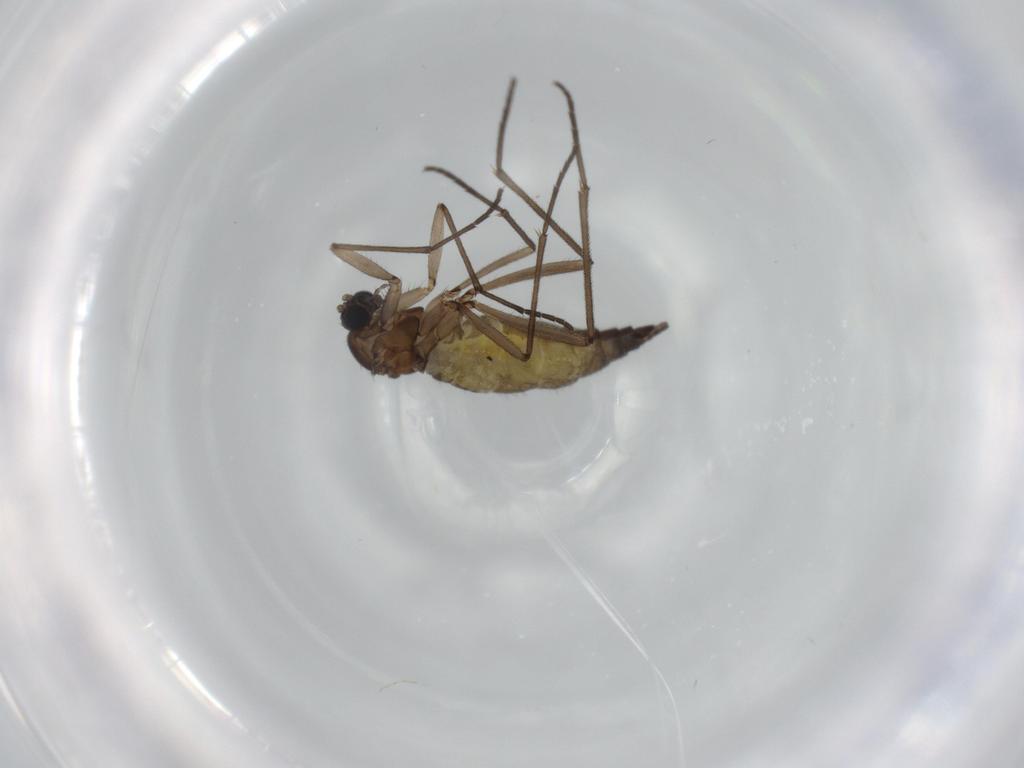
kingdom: Animalia
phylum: Arthropoda
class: Insecta
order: Diptera
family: Sciaridae
